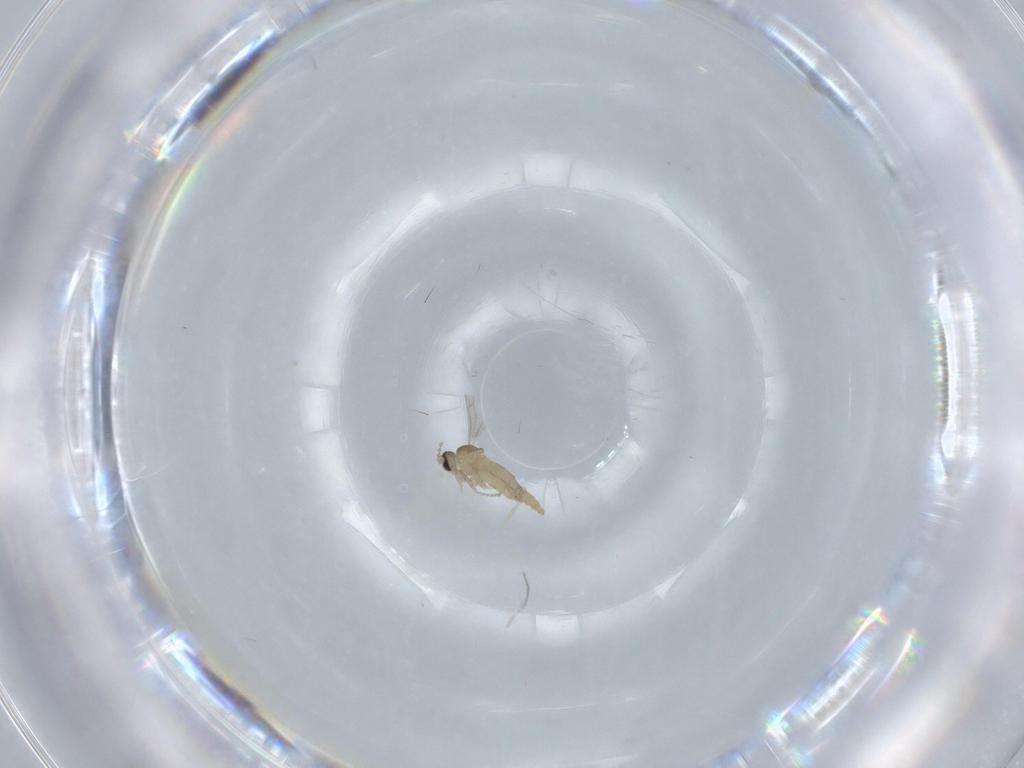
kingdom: Animalia
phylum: Arthropoda
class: Insecta
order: Diptera
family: Cecidomyiidae
